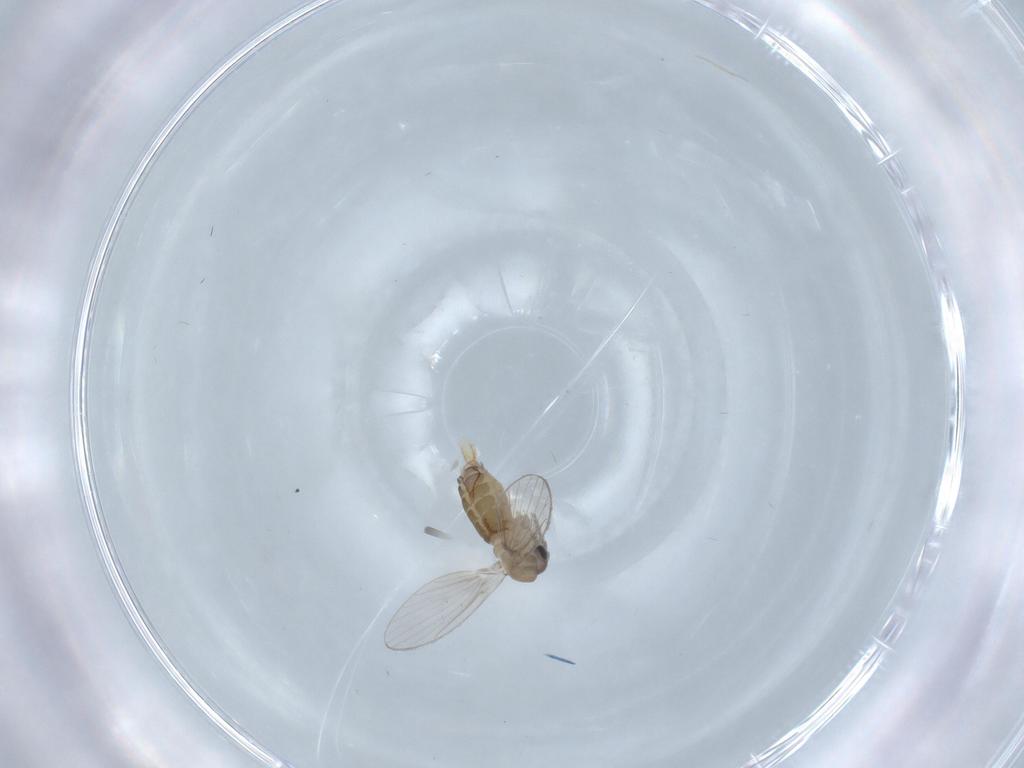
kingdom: Animalia
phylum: Arthropoda
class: Insecta
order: Diptera
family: Psychodidae
